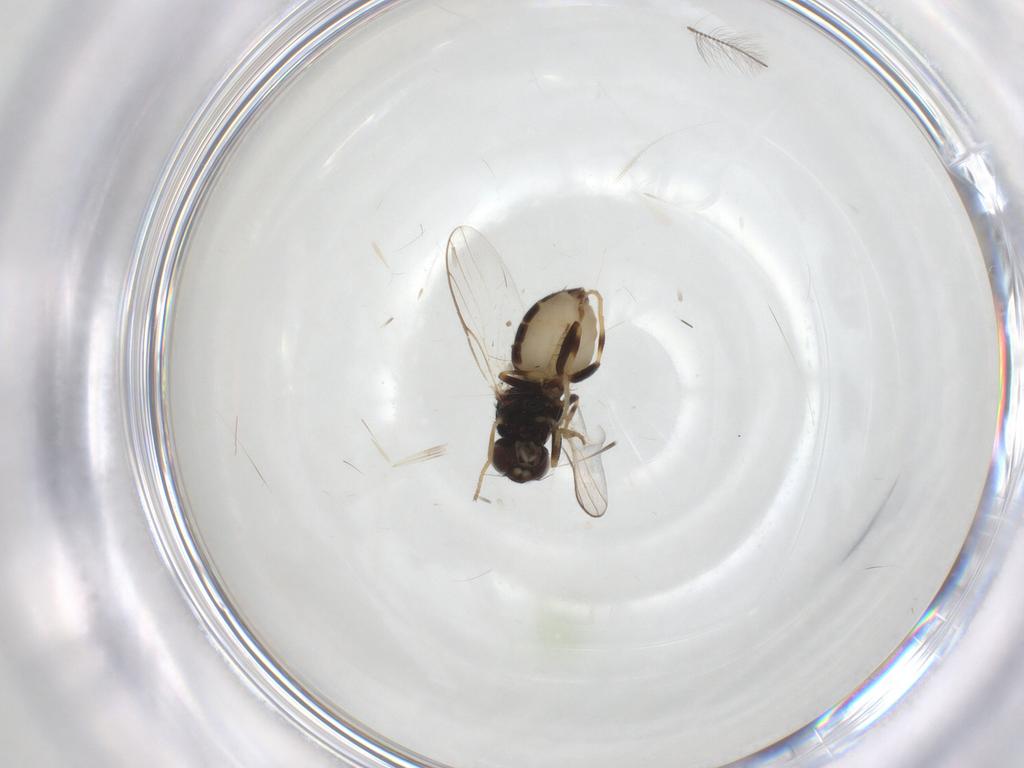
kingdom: Animalia
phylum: Arthropoda
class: Insecta
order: Diptera
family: Chloropidae
